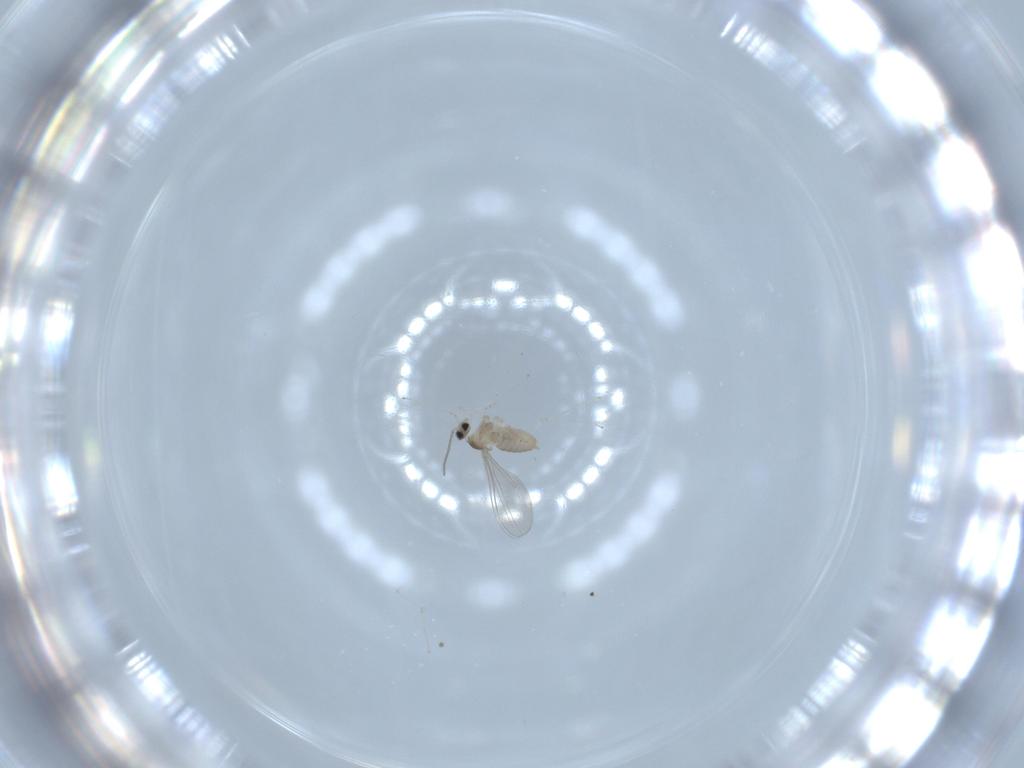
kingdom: Animalia
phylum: Arthropoda
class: Insecta
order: Diptera
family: Cecidomyiidae
